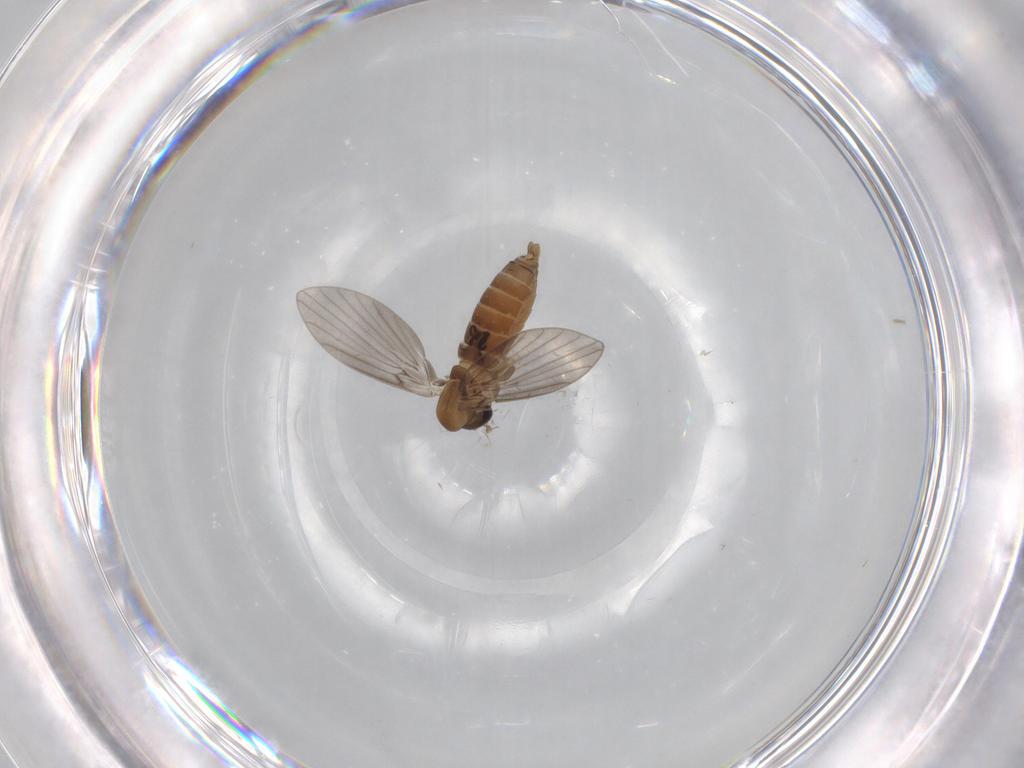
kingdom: Animalia
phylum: Arthropoda
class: Insecta
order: Diptera
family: Ditomyiidae
